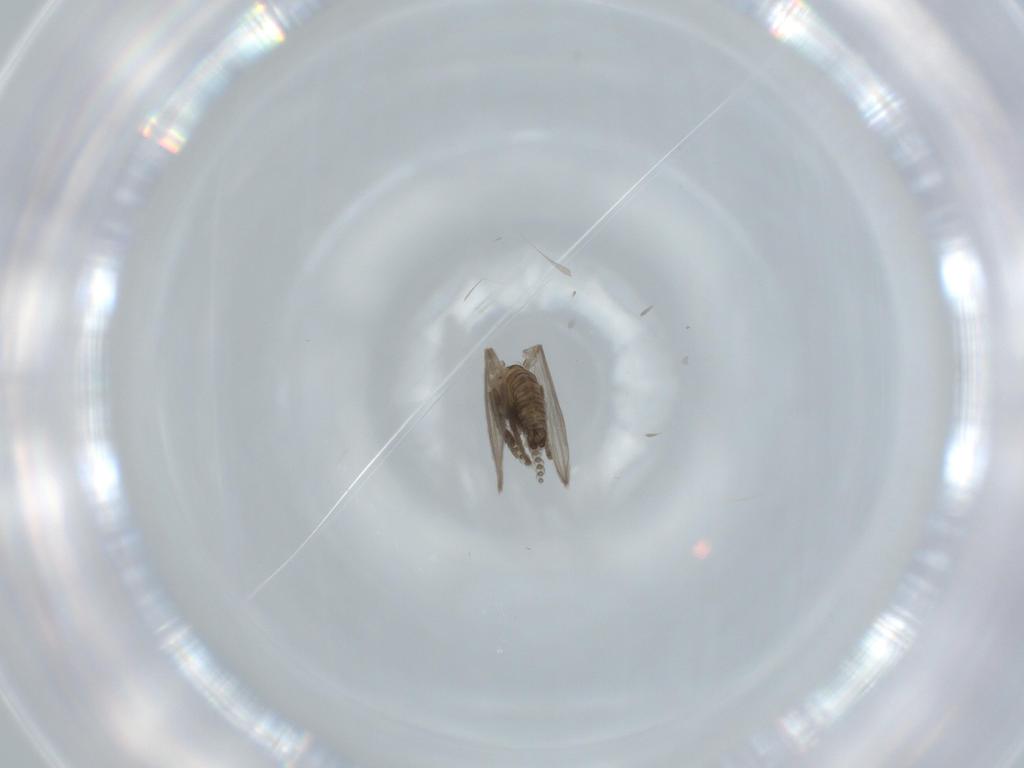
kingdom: Animalia
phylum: Arthropoda
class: Insecta
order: Diptera
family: Psychodidae
